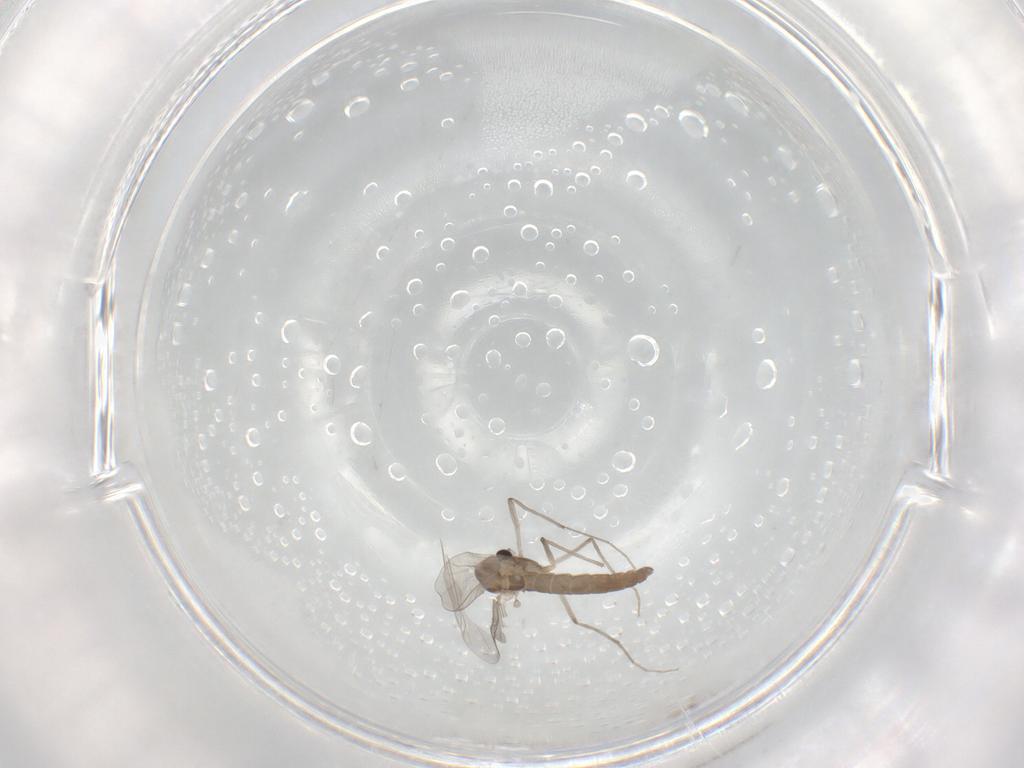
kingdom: Animalia
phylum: Arthropoda
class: Insecta
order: Diptera
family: Chironomidae
